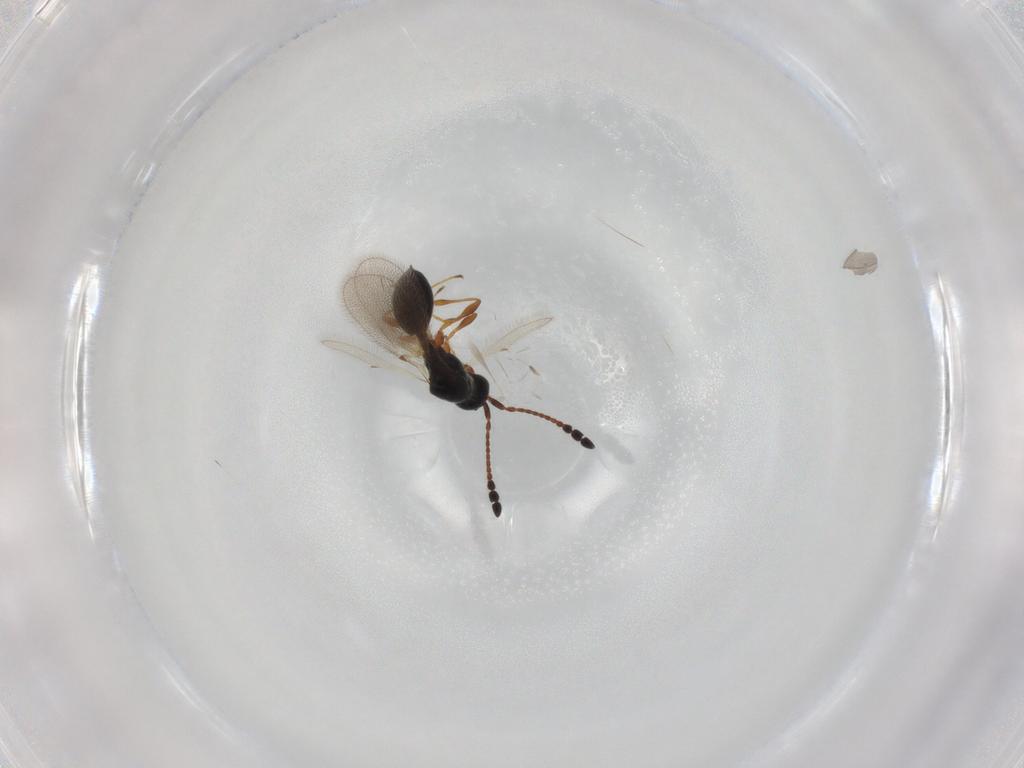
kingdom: Animalia
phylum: Arthropoda
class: Insecta
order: Hymenoptera
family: Diapriidae
